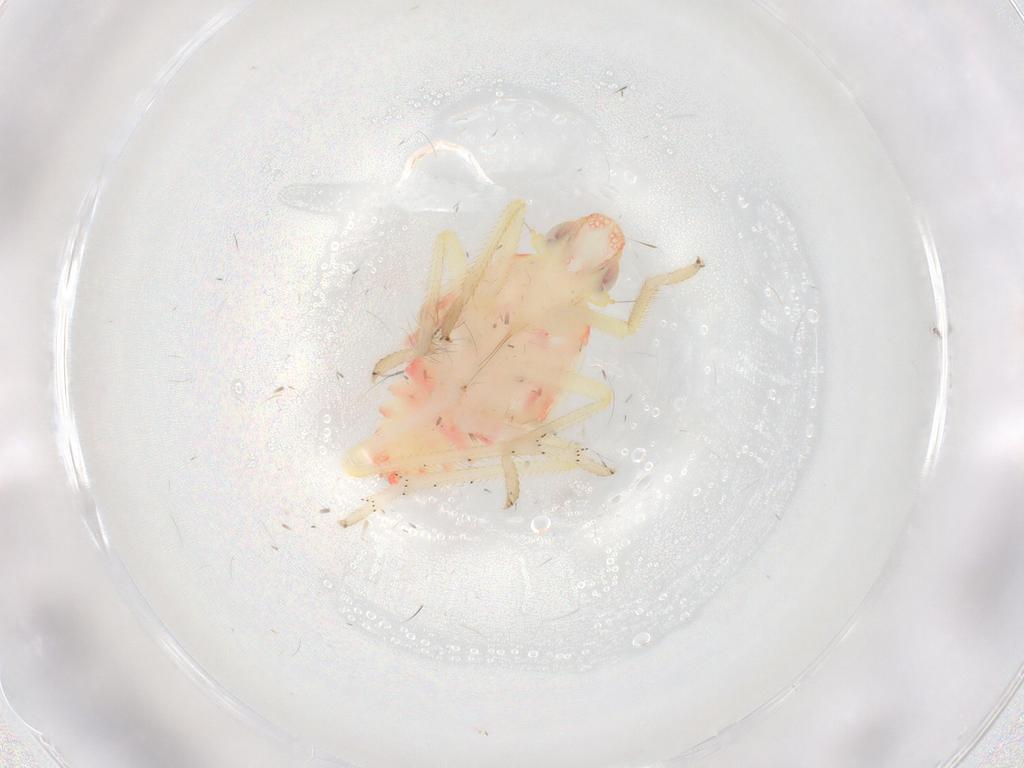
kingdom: Animalia
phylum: Arthropoda
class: Insecta
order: Hemiptera
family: Tropiduchidae
